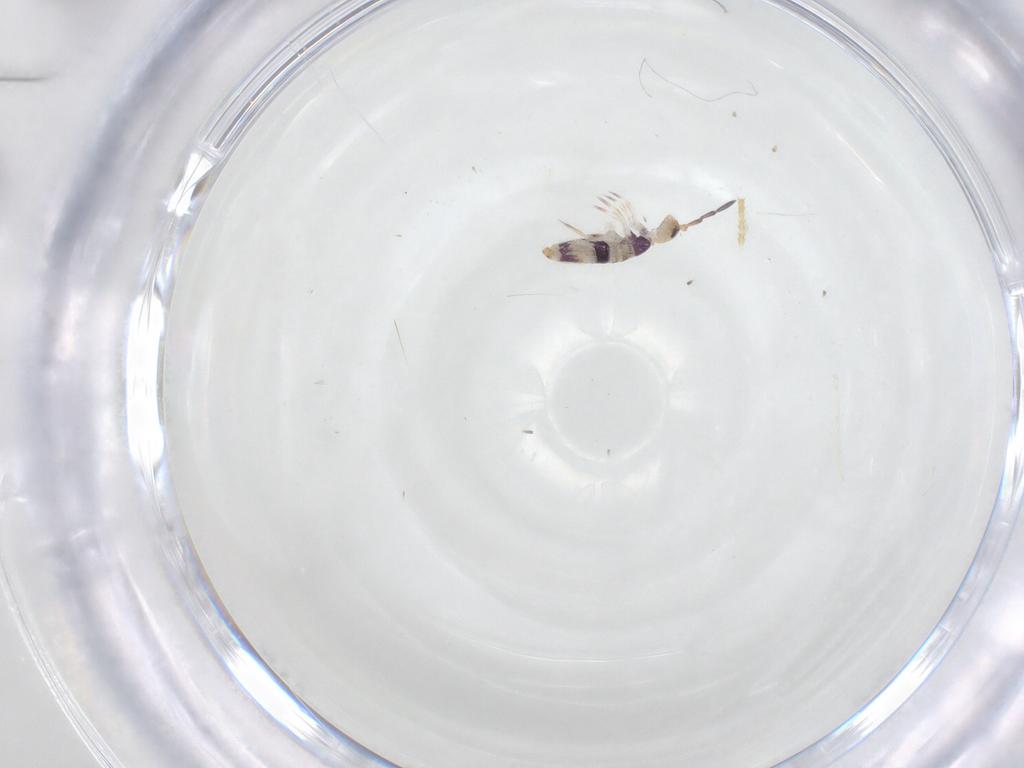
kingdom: Animalia
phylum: Arthropoda
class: Collembola
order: Entomobryomorpha
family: Entomobryidae
